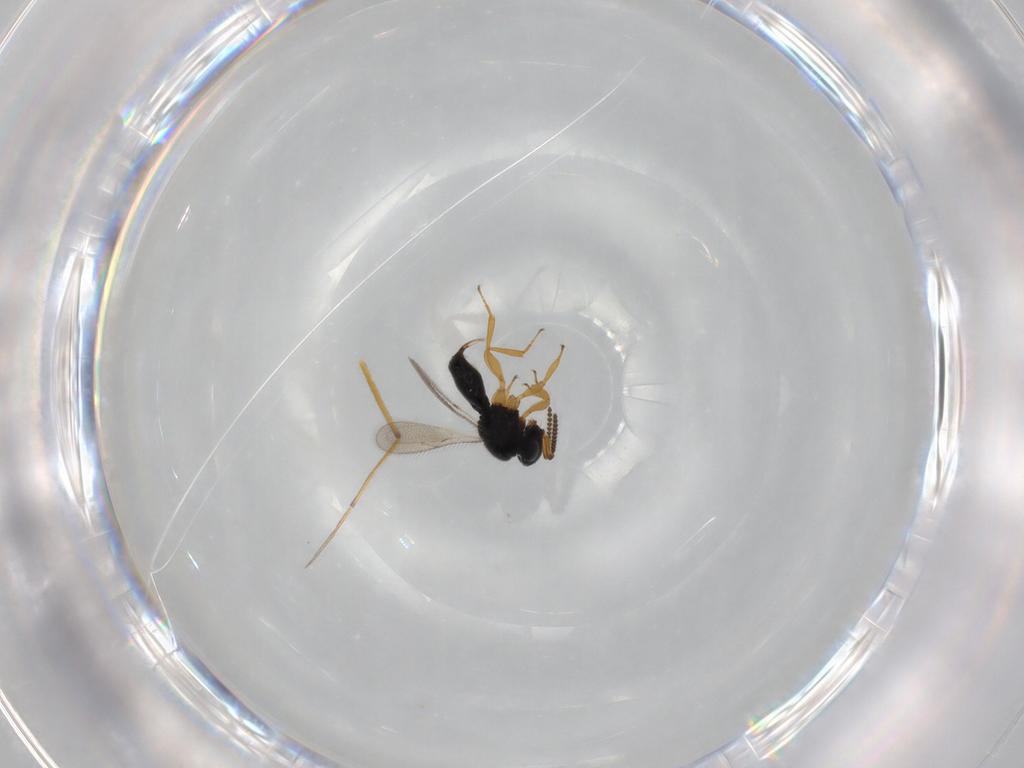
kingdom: Animalia
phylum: Arthropoda
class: Insecta
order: Hymenoptera
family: Scelionidae
